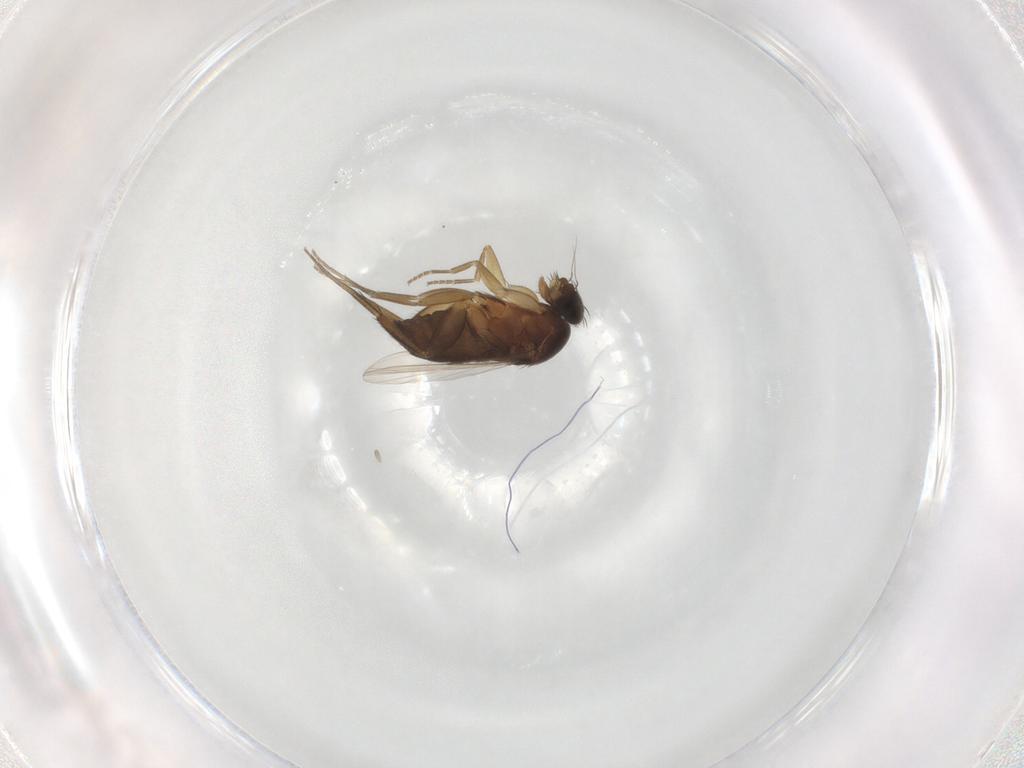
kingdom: Animalia
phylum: Arthropoda
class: Insecta
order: Diptera
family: Phoridae
